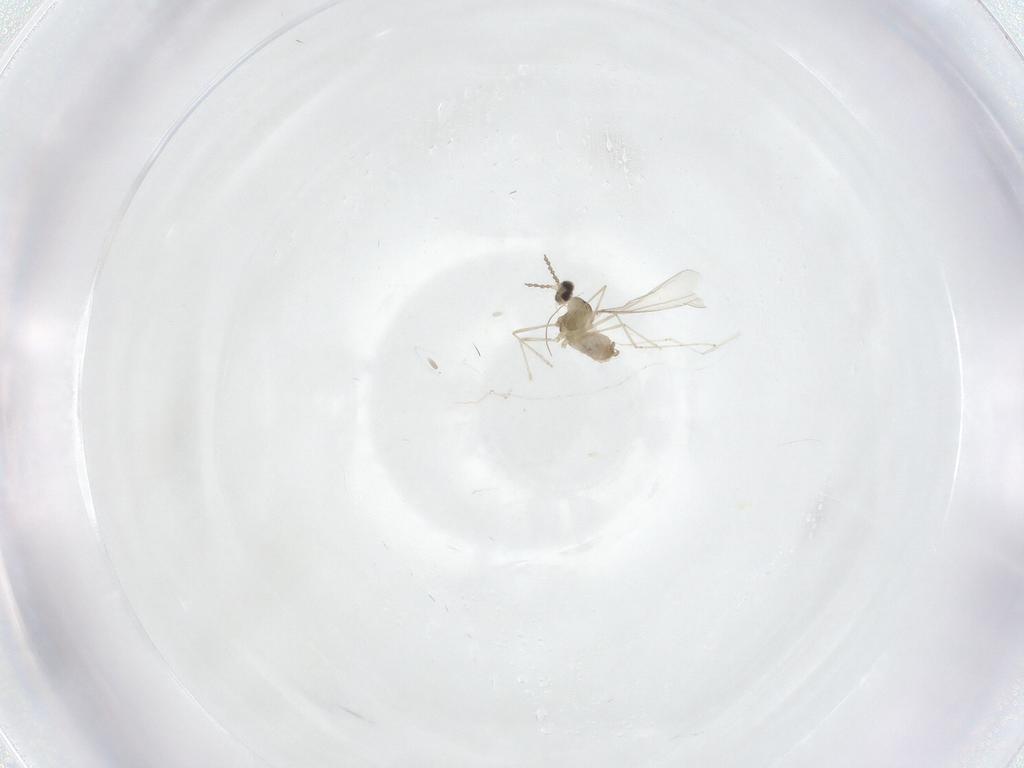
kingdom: Animalia
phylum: Arthropoda
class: Insecta
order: Diptera
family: Cecidomyiidae
